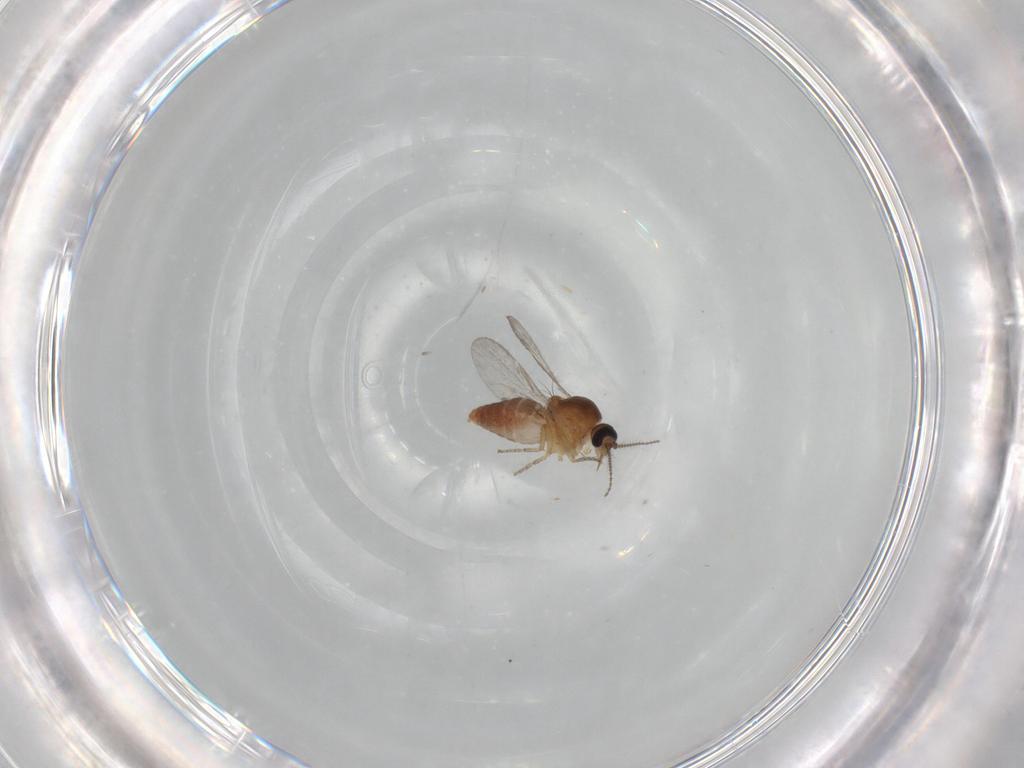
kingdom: Animalia
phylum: Arthropoda
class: Insecta
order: Diptera
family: Ceratopogonidae
